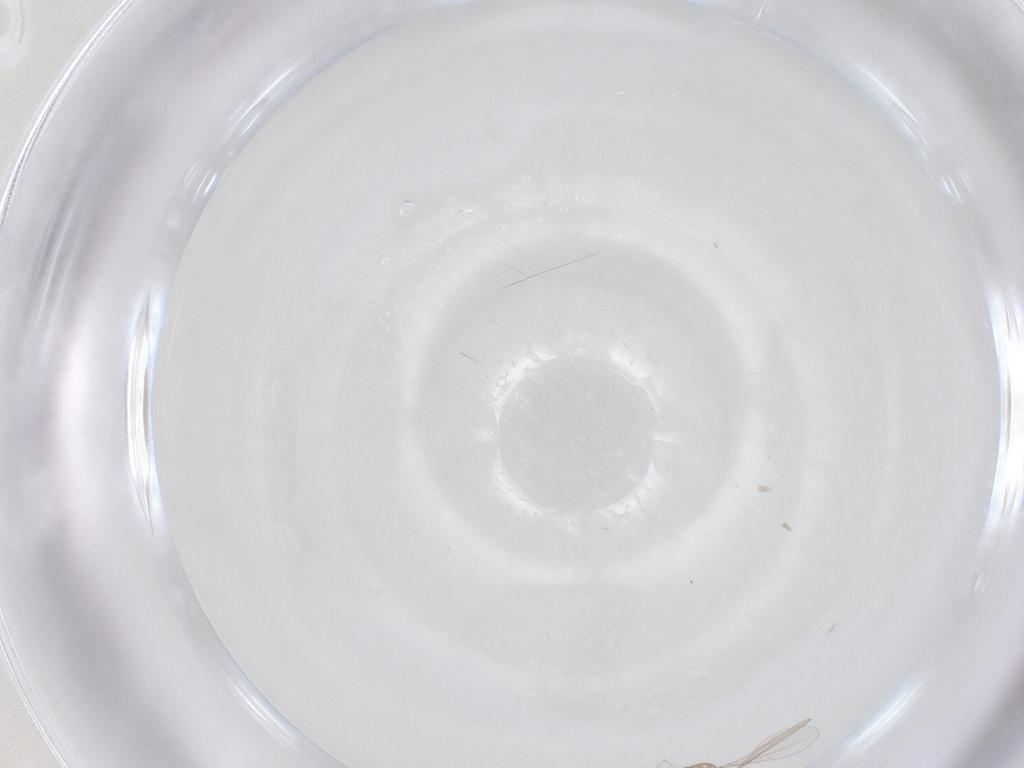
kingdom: Animalia
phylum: Arthropoda
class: Insecta
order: Diptera
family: Cecidomyiidae
